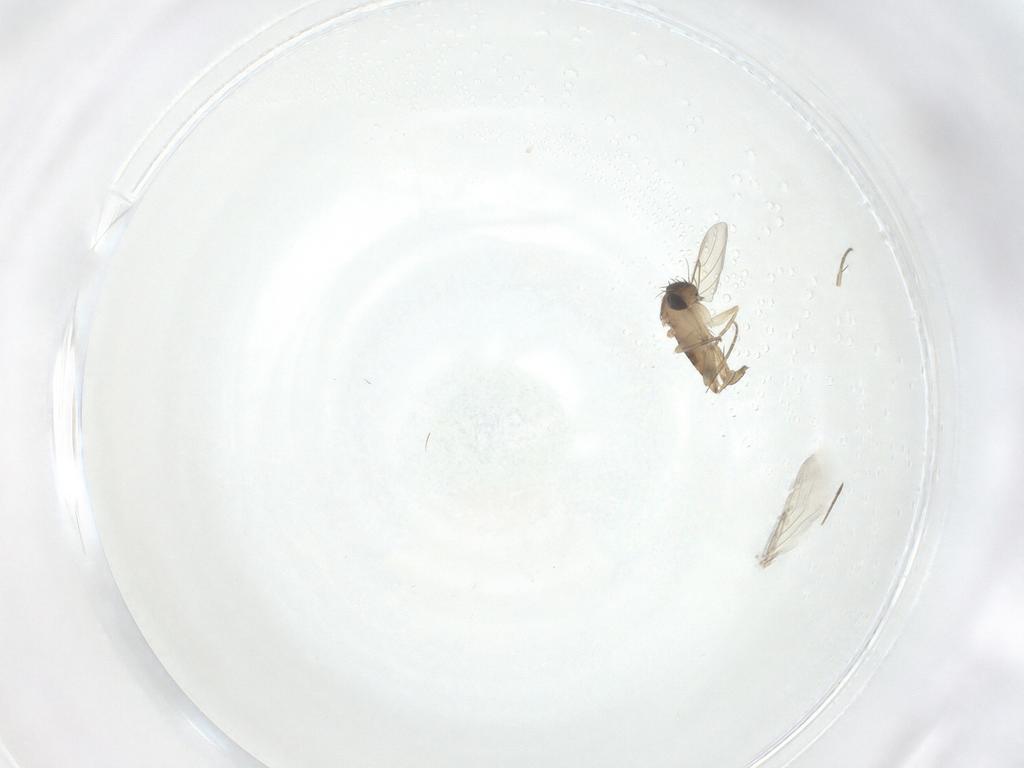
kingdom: Animalia
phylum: Arthropoda
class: Insecta
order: Diptera
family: Phoridae
